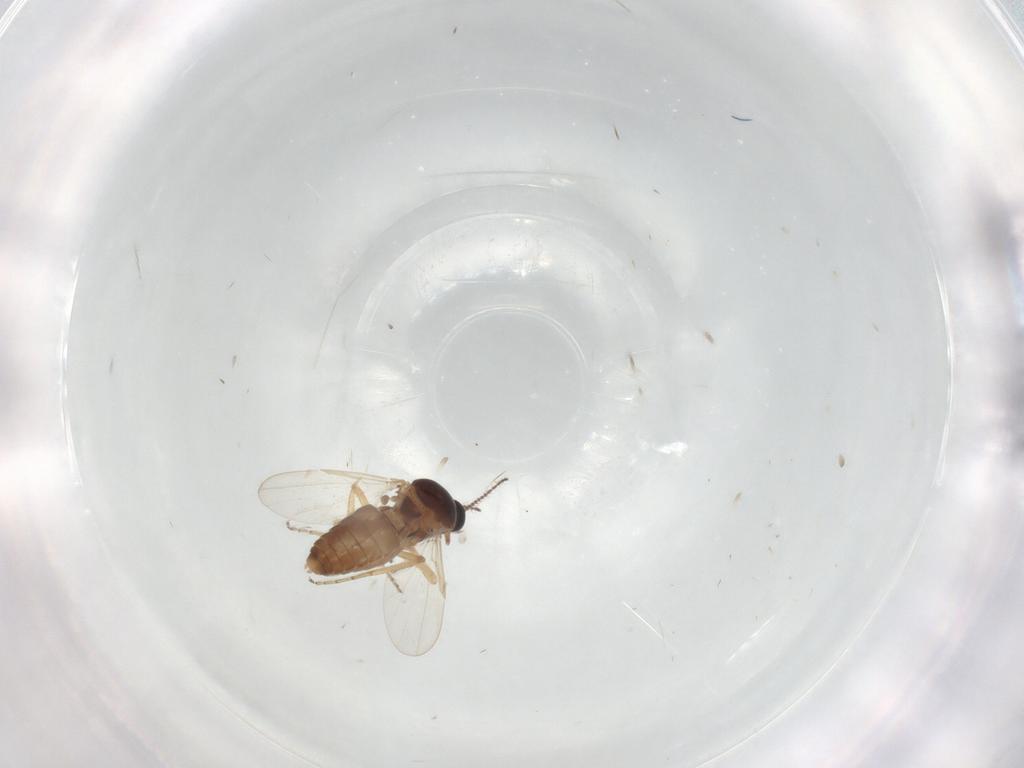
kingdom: Animalia
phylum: Arthropoda
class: Insecta
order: Diptera
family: Ceratopogonidae
